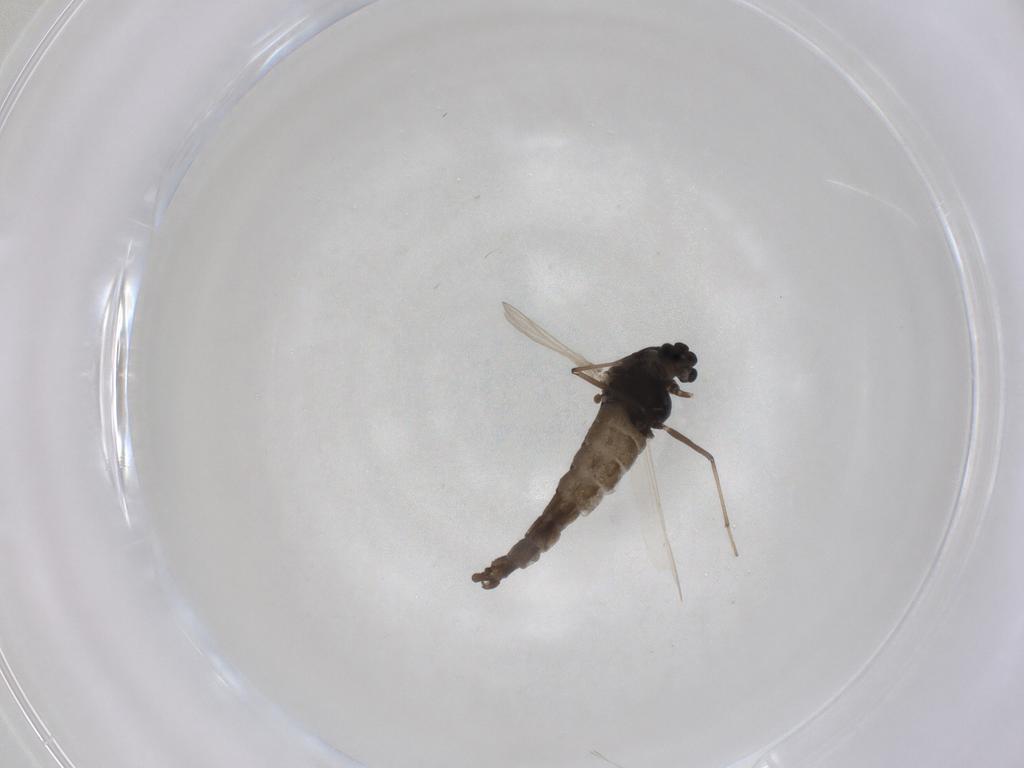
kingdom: Animalia
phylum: Arthropoda
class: Insecta
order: Diptera
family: Chironomidae
